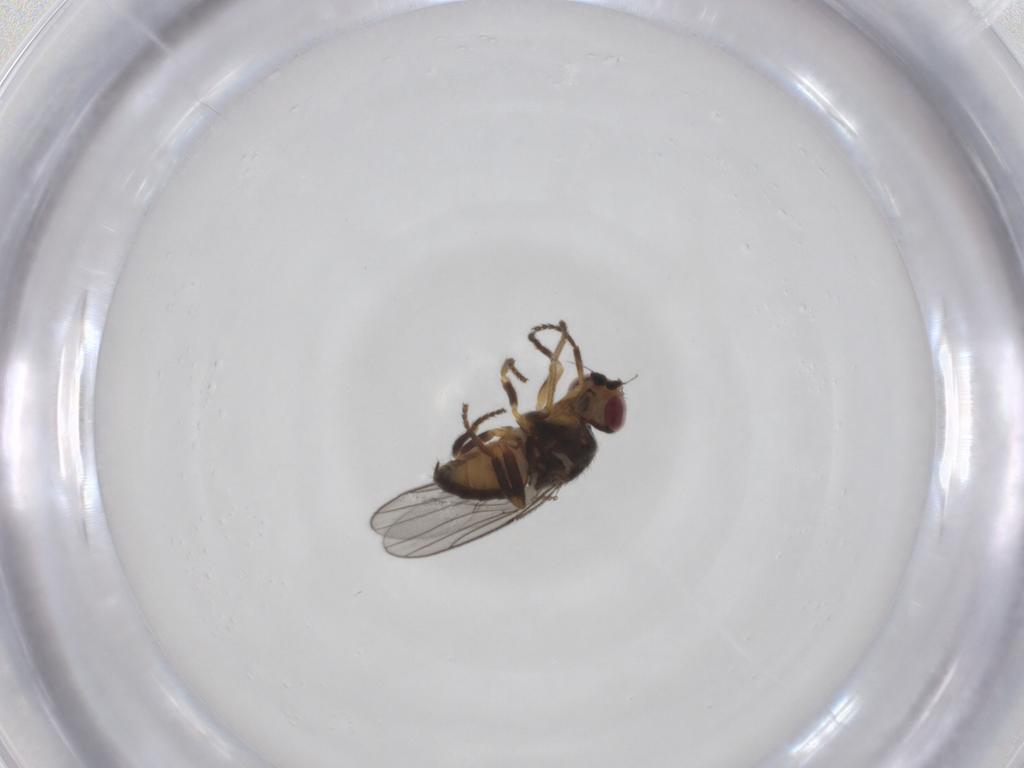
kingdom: Animalia
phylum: Arthropoda
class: Insecta
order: Diptera
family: Chloropidae
